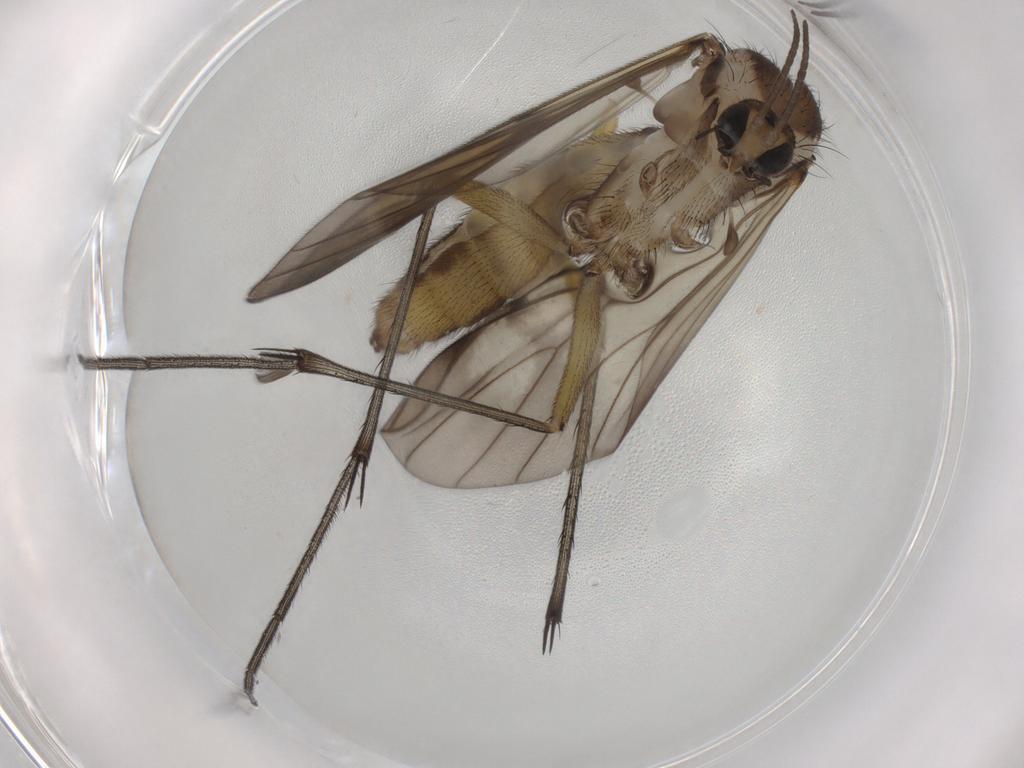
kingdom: Animalia
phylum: Arthropoda
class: Insecta
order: Diptera
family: Mycetophilidae
